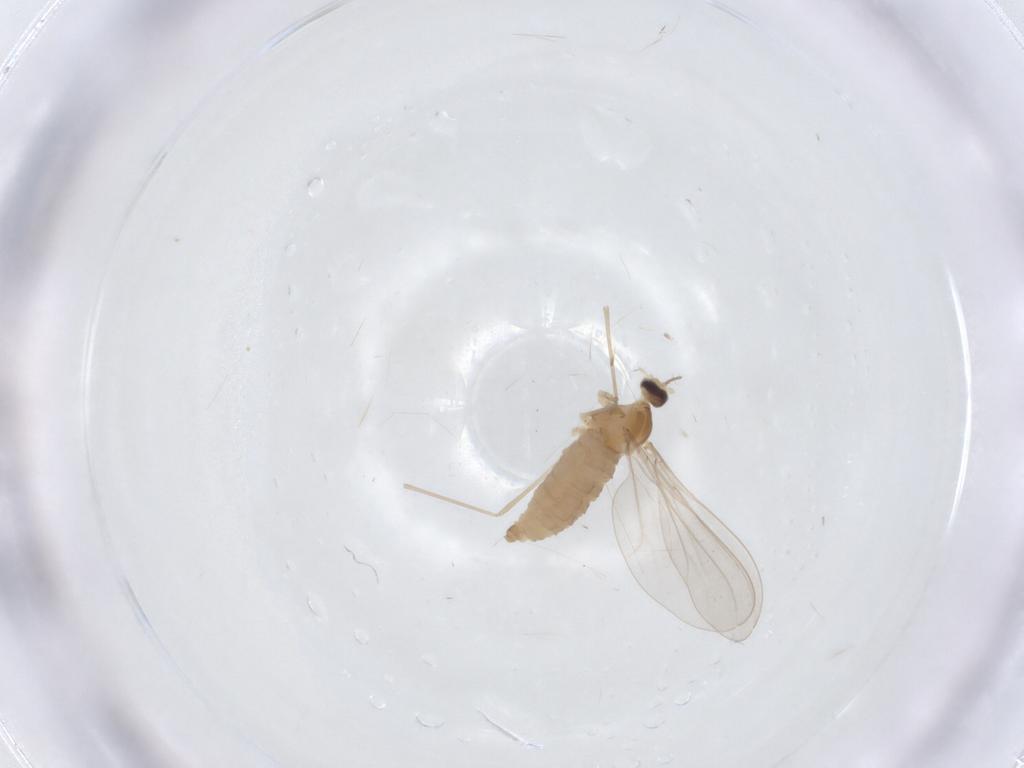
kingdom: Animalia
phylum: Arthropoda
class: Insecta
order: Diptera
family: Cecidomyiidae
